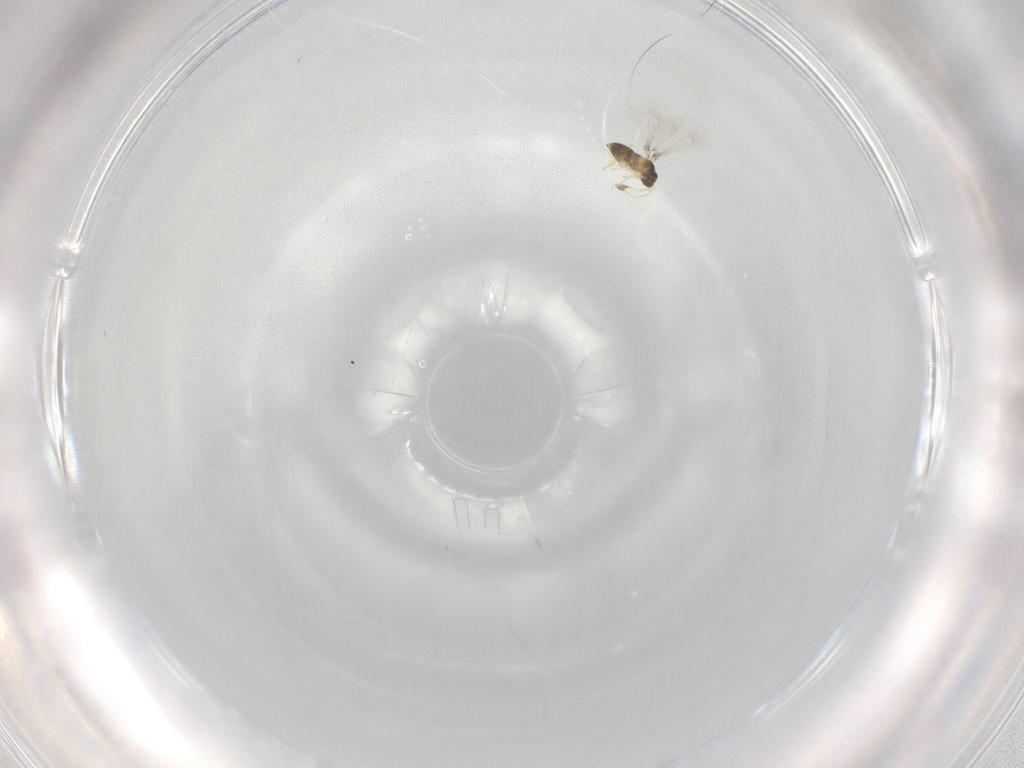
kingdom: Animalia
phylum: Arthropoda
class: Insecta
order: Hymenoptera
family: Mymaridae
